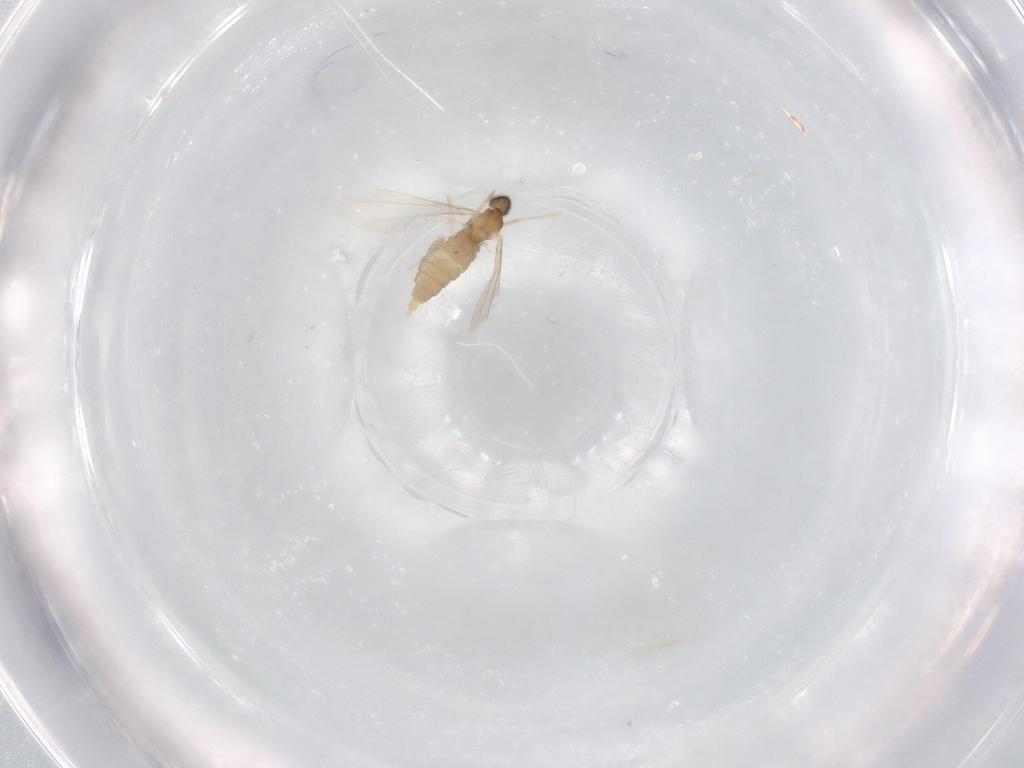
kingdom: Animalia
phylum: Arthropoda
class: Insecta
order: Diptera
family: Cecidomyiidae
